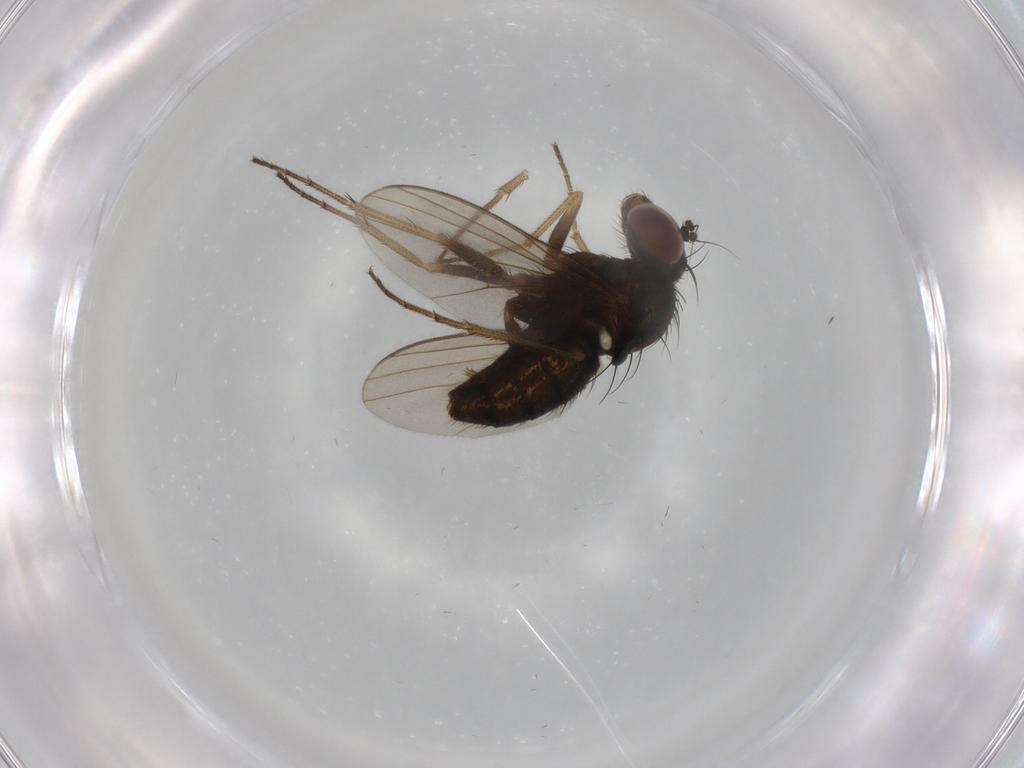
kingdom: Animalia
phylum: Arthropoda
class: Insecta
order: Diptera
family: Dolichopodidae
